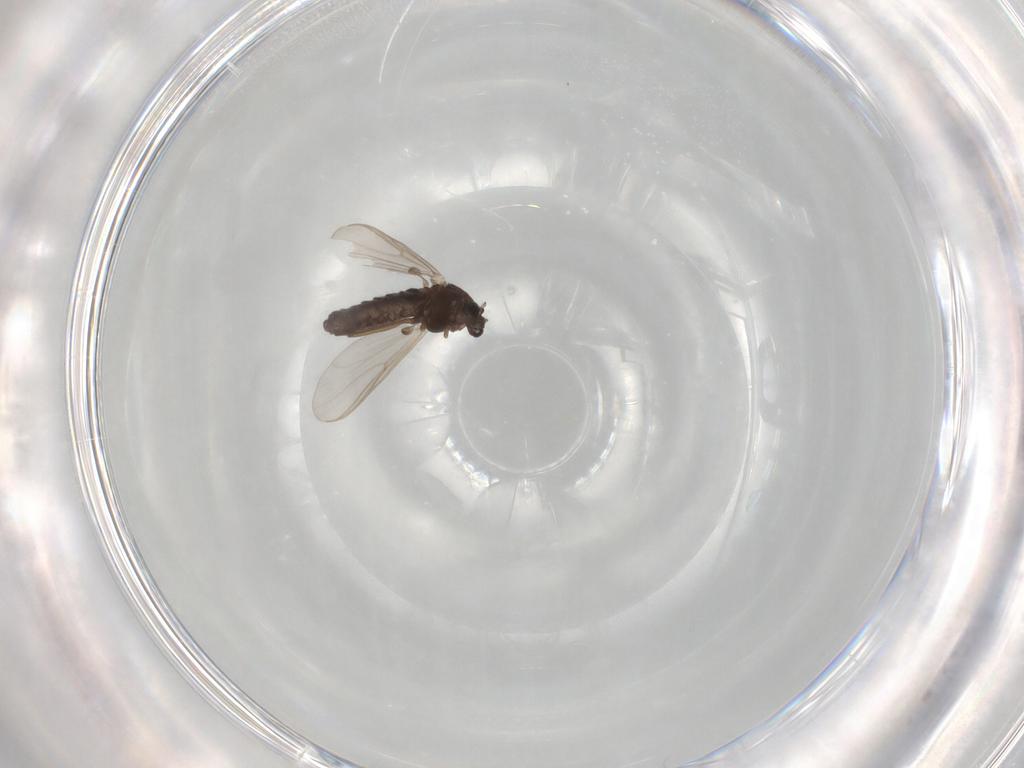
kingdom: Animalia
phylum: Arthropoda
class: Insecta
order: Diptera
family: Chironomidae
